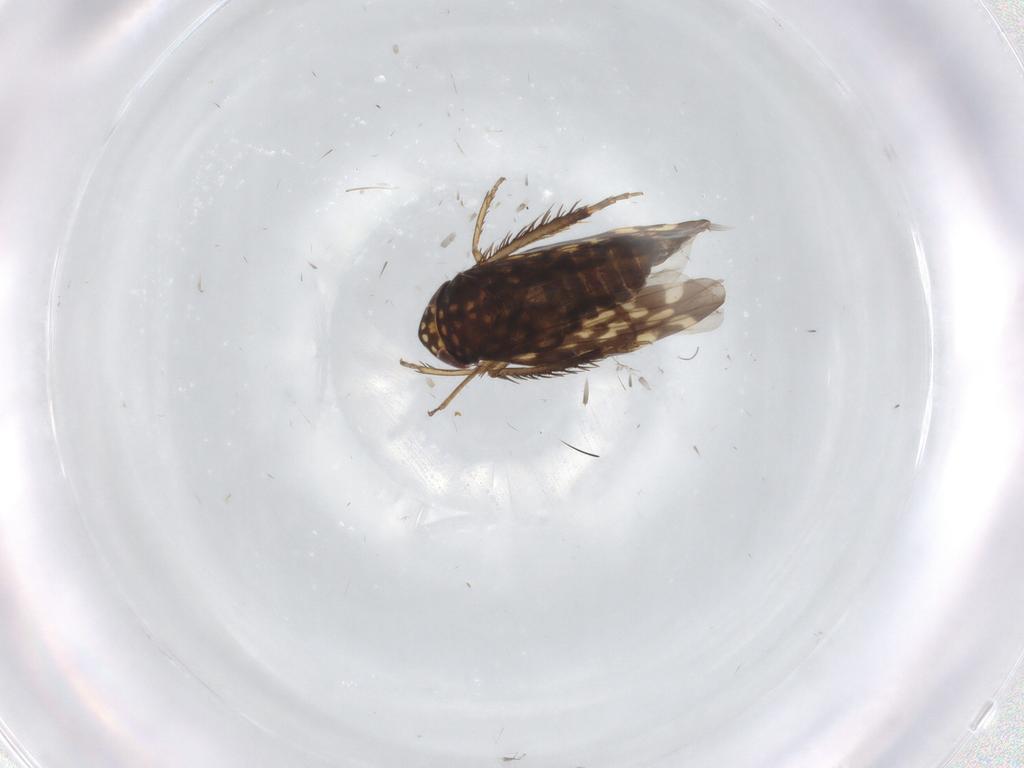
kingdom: Animalia
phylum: Arthropoda
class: Insecta
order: Hemiptera
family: Cicadellidae
